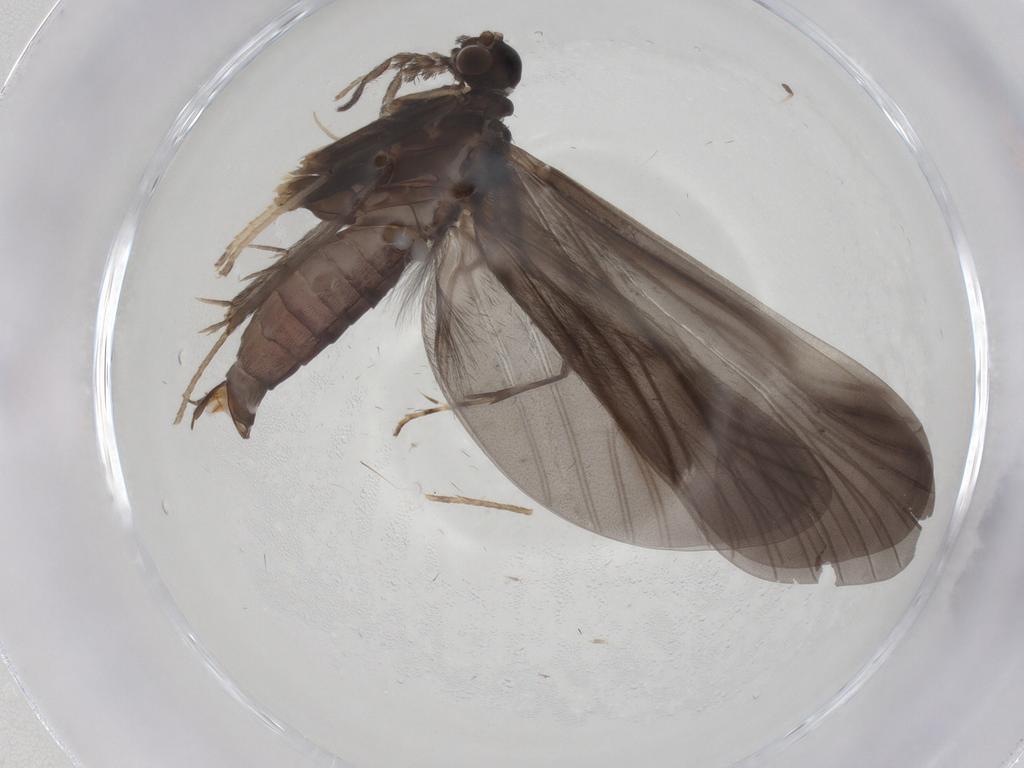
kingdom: Animalia
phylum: Arthropoda
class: Insecta
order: Trichoptera
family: Hydropsychidae
